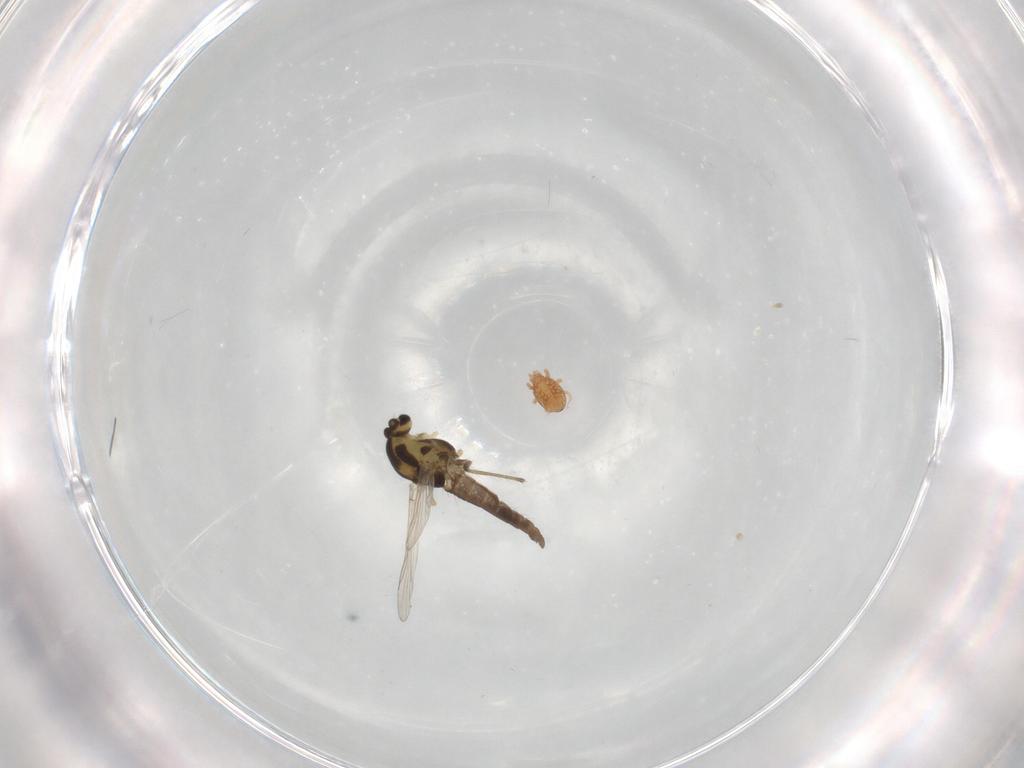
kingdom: Animalia
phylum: Arthropoda
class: Insecta
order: Diptera
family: Chironomidae
